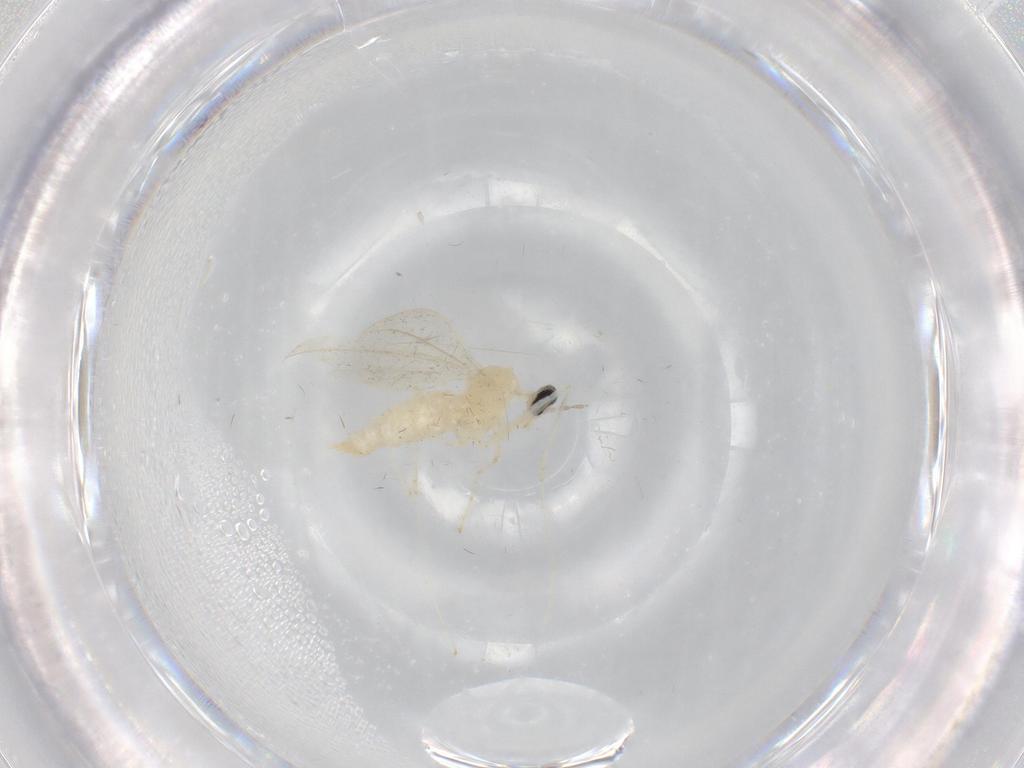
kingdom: Animalia
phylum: Arthropoda
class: Insecta
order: Diptera
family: Cecidomyiidae
